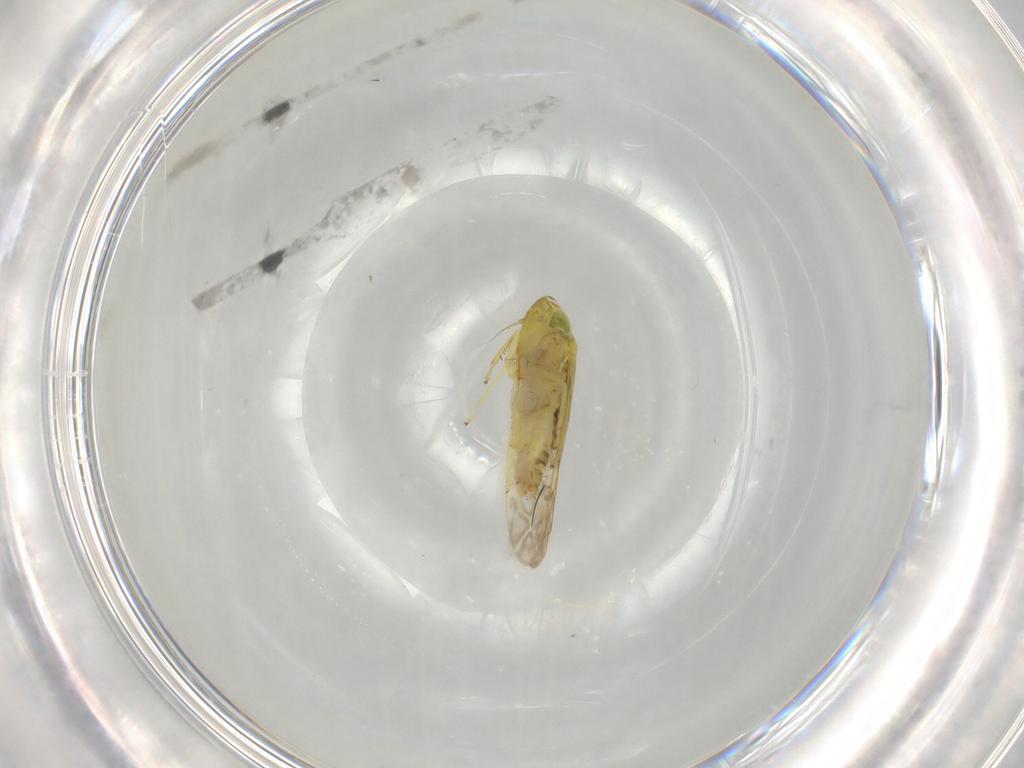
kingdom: Animalia
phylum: Arthropoda
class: Insecta
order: Hemiptera
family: Cicadellidae
